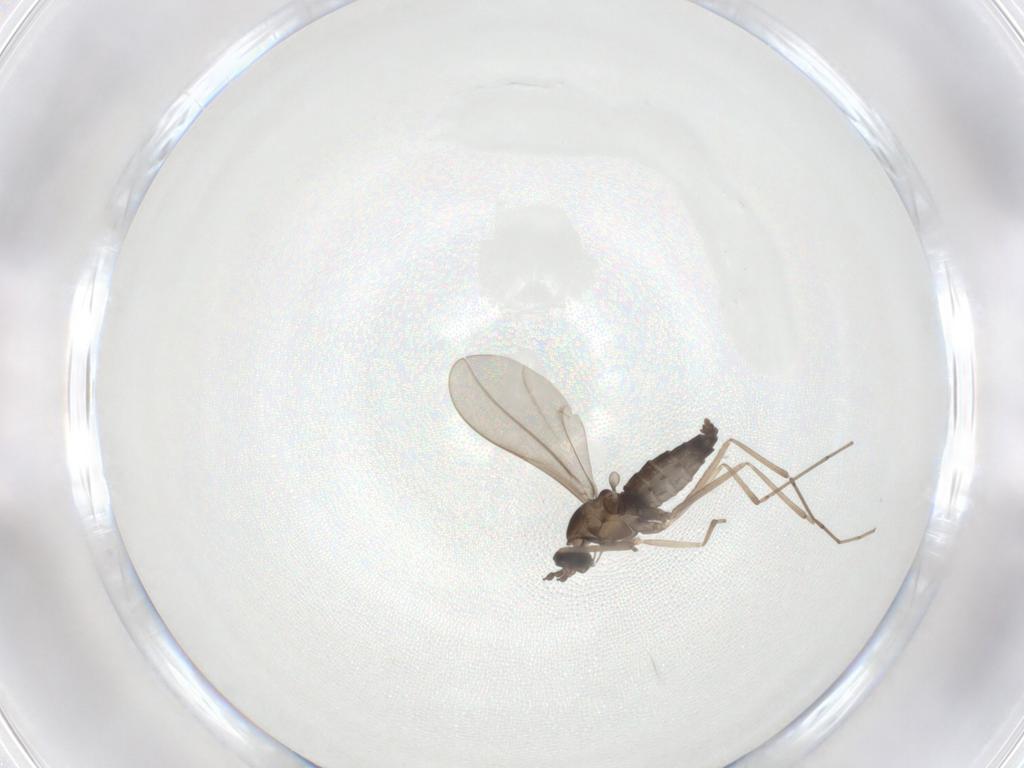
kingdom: Animalia
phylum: Arthropoda
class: Insecta
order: Diptera
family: Cecidomyiidae
